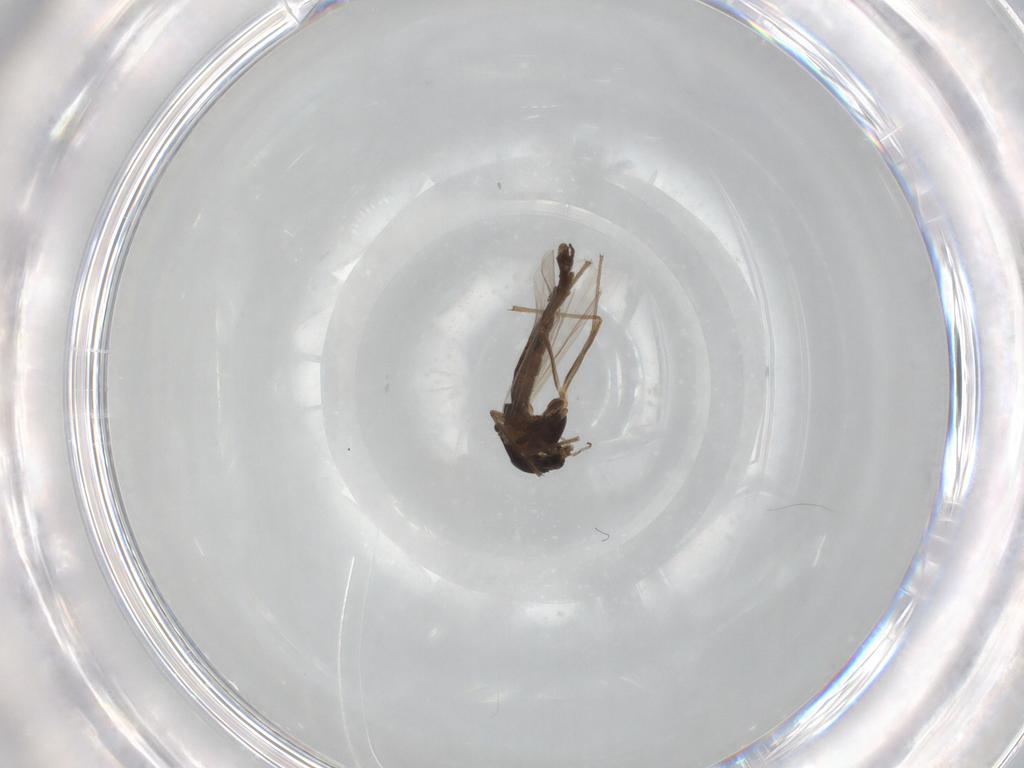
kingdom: Animalia
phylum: Arthropoda
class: Insecta
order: Diptera
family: Chironomidae
